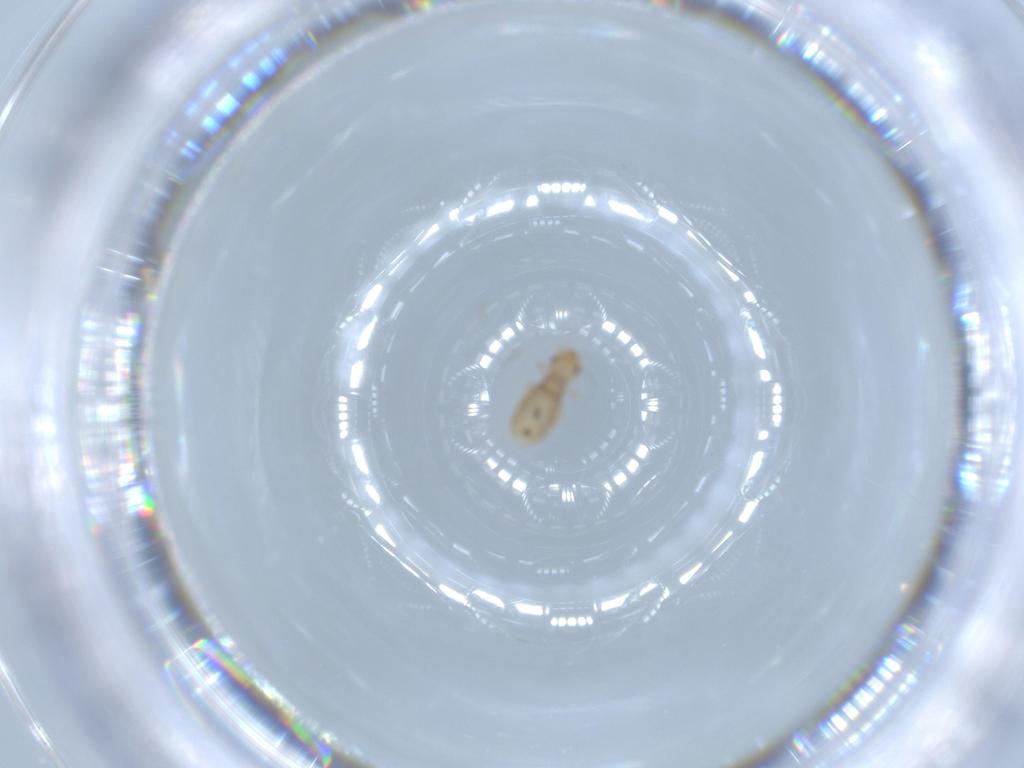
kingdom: Animalia
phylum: Arthropoda
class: Insecta
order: Psocodea
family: Liposcelididae
